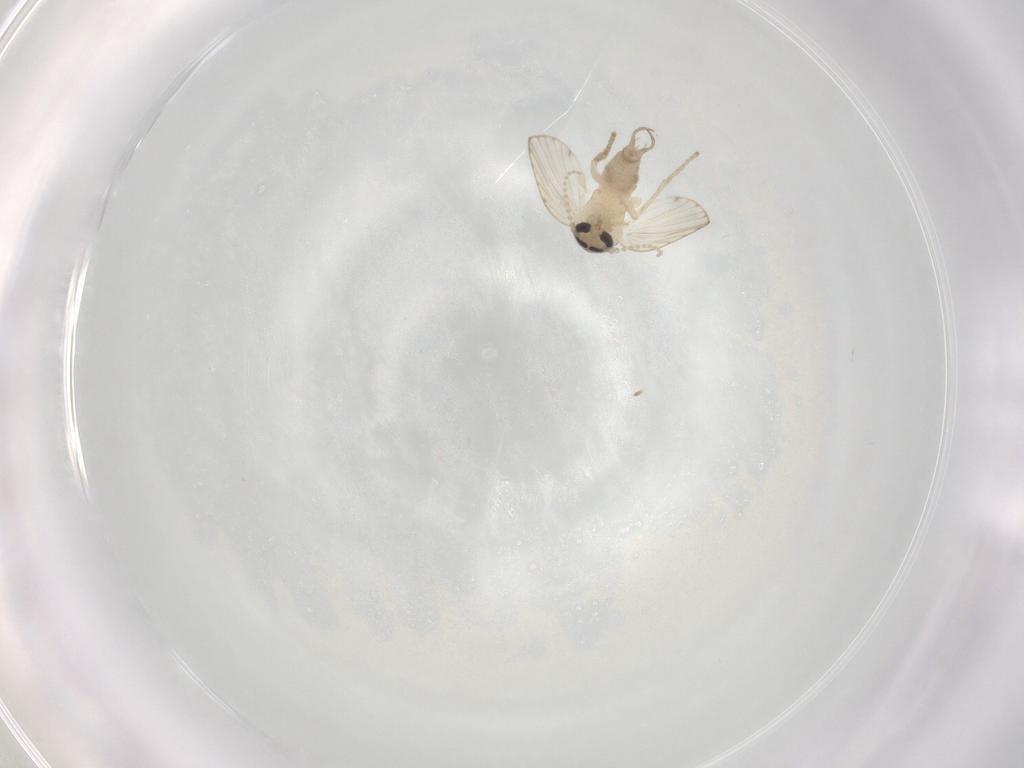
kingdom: Animalia
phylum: Arthropoda
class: Insecta
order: Diptera
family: Psychodidae
